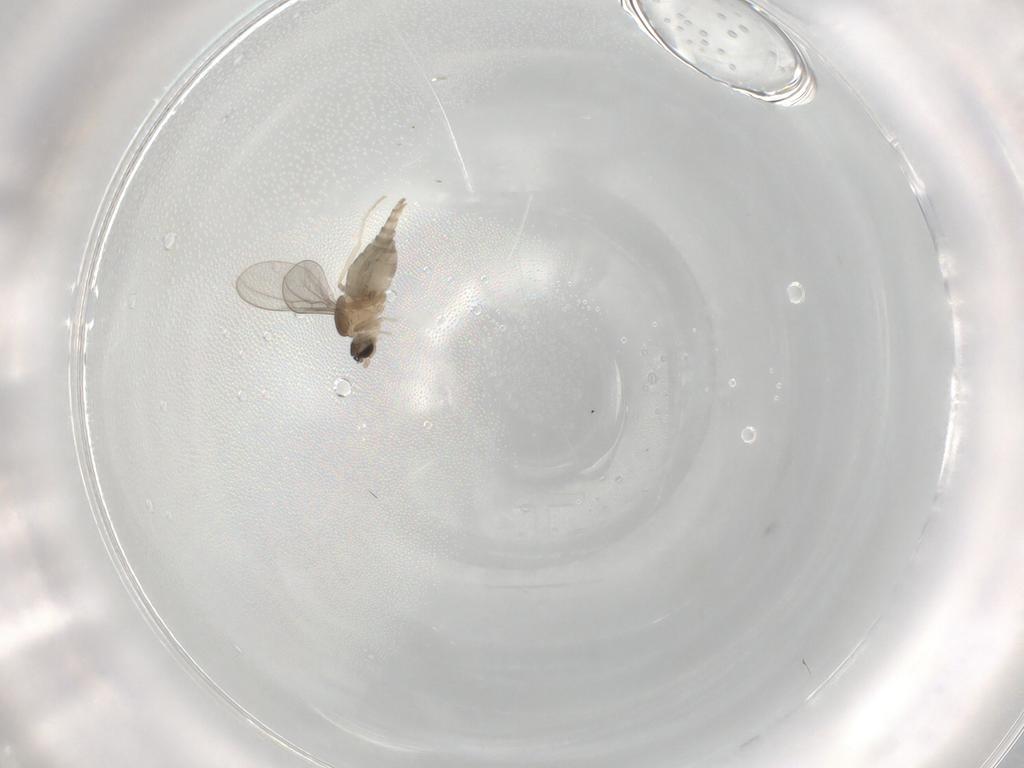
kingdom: Animalia
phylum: Arthropoda
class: Insecta
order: Diptera
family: Cecidomyiidae
